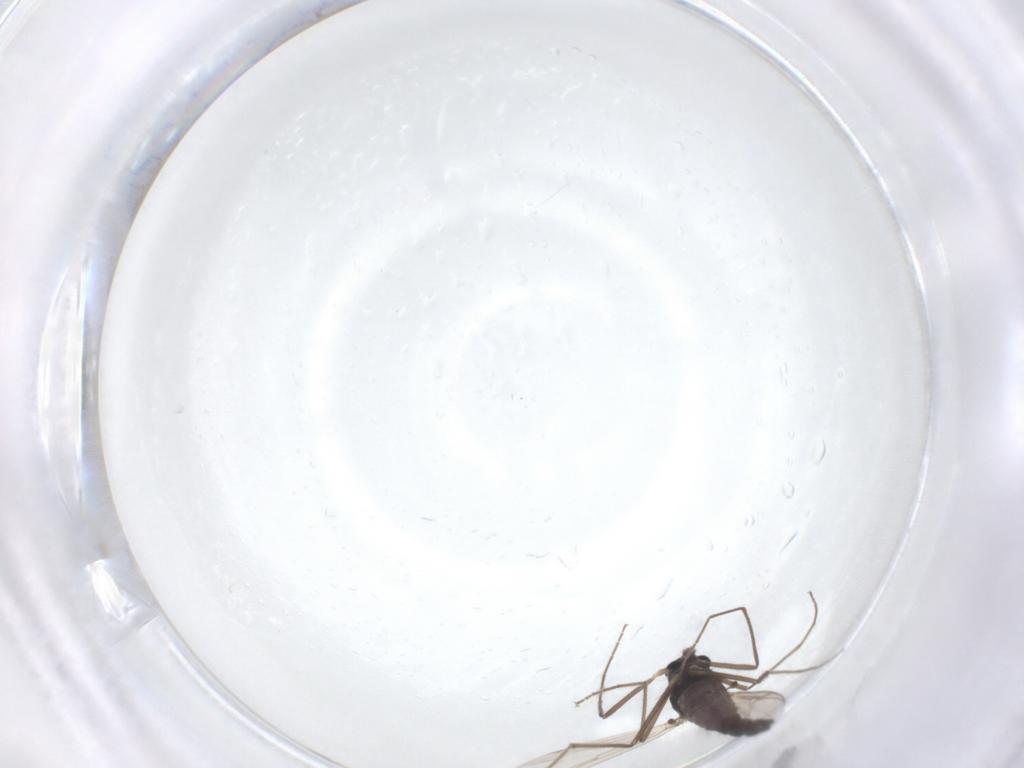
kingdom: Animalia
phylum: Arthropoda
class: Insecta
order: Diptera
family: Chironomidae
